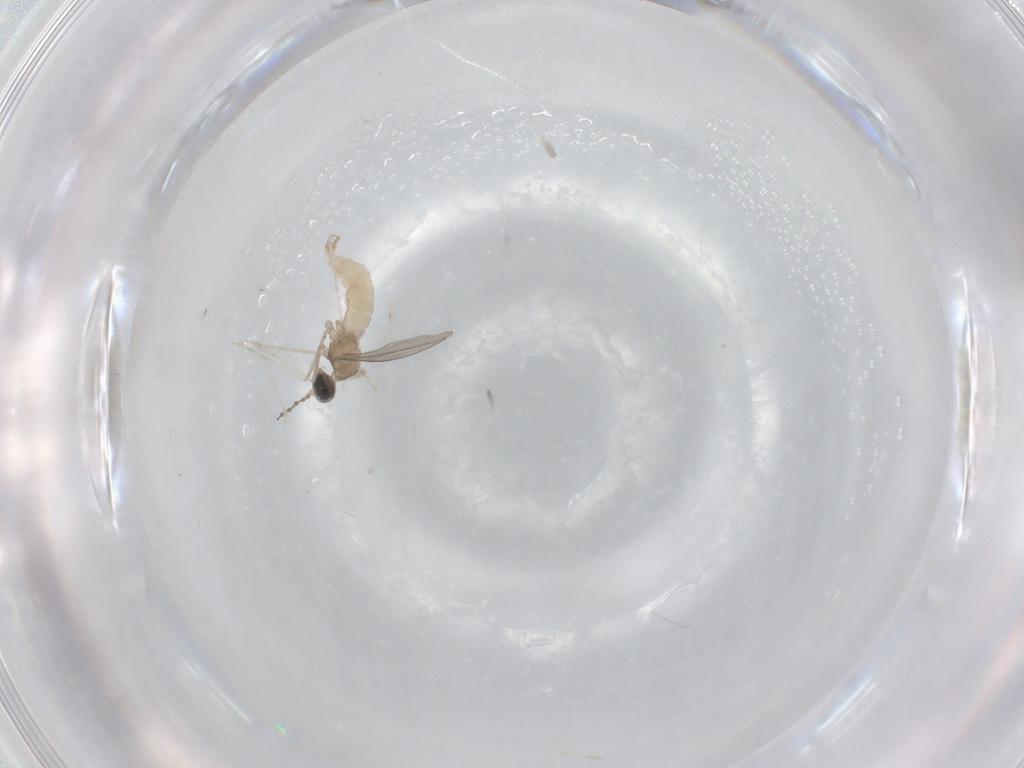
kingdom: Animalia
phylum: Arthropoda
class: Insecta
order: Diptera
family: Cecidomyiidae
